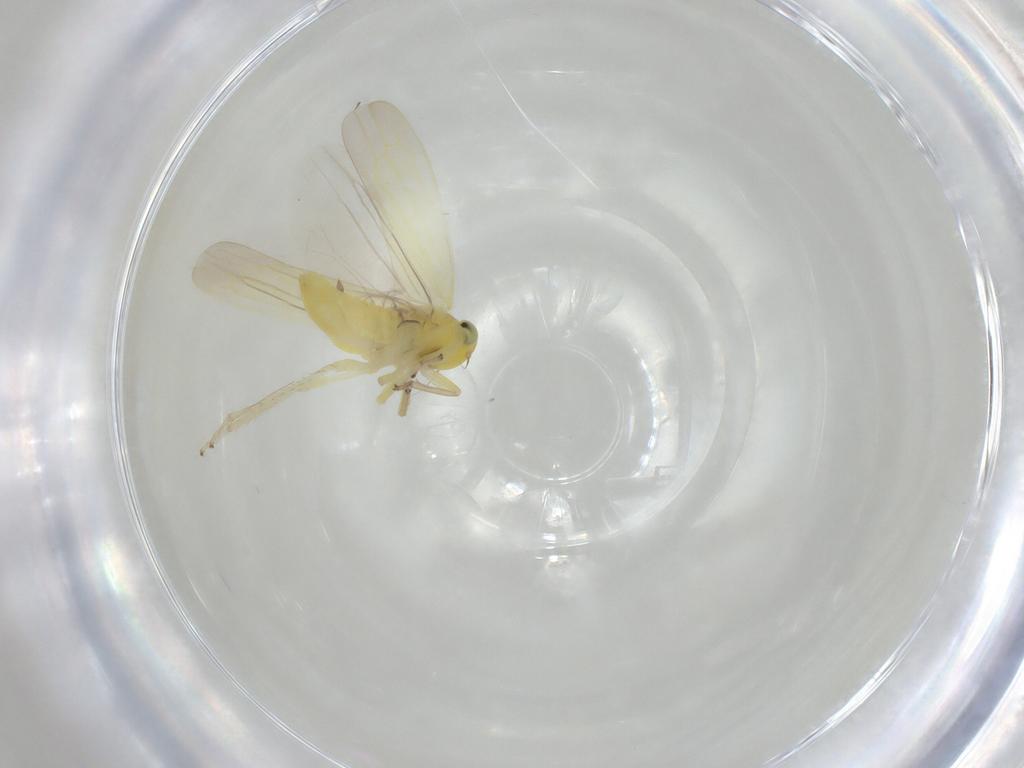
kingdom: Animalia
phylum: Arthropoda
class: Insecta
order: Hemiptera
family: Cicadellidae
